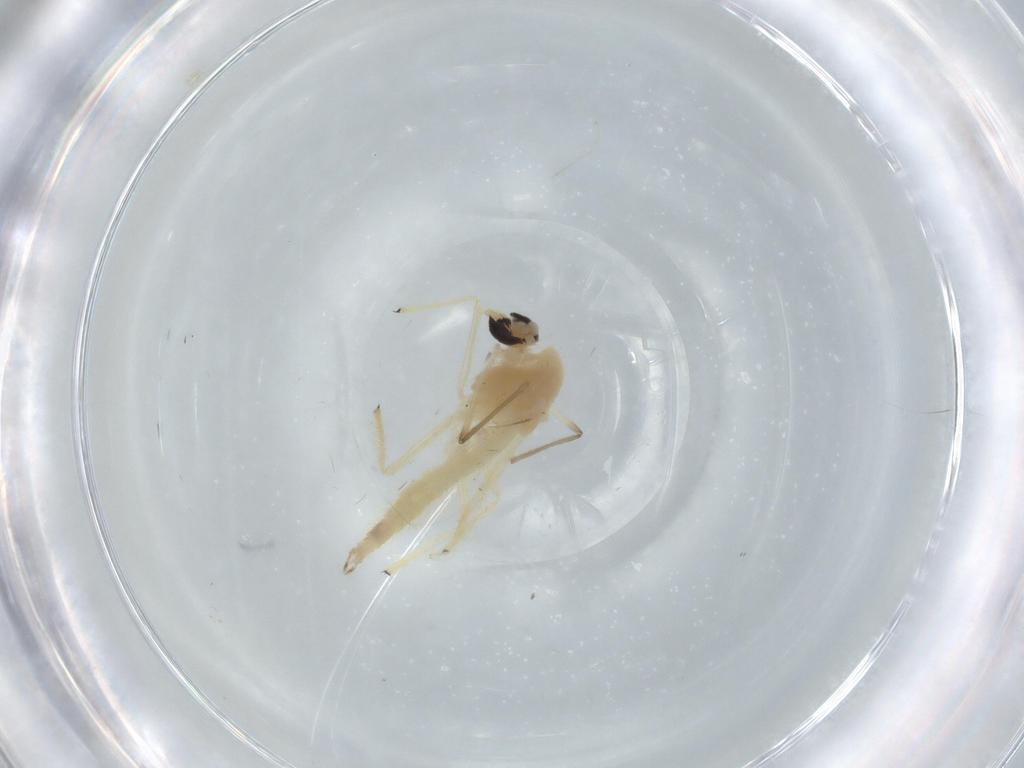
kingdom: Animalia
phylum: Arthropoda
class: Insecta
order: Diptera
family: Chironomidae
